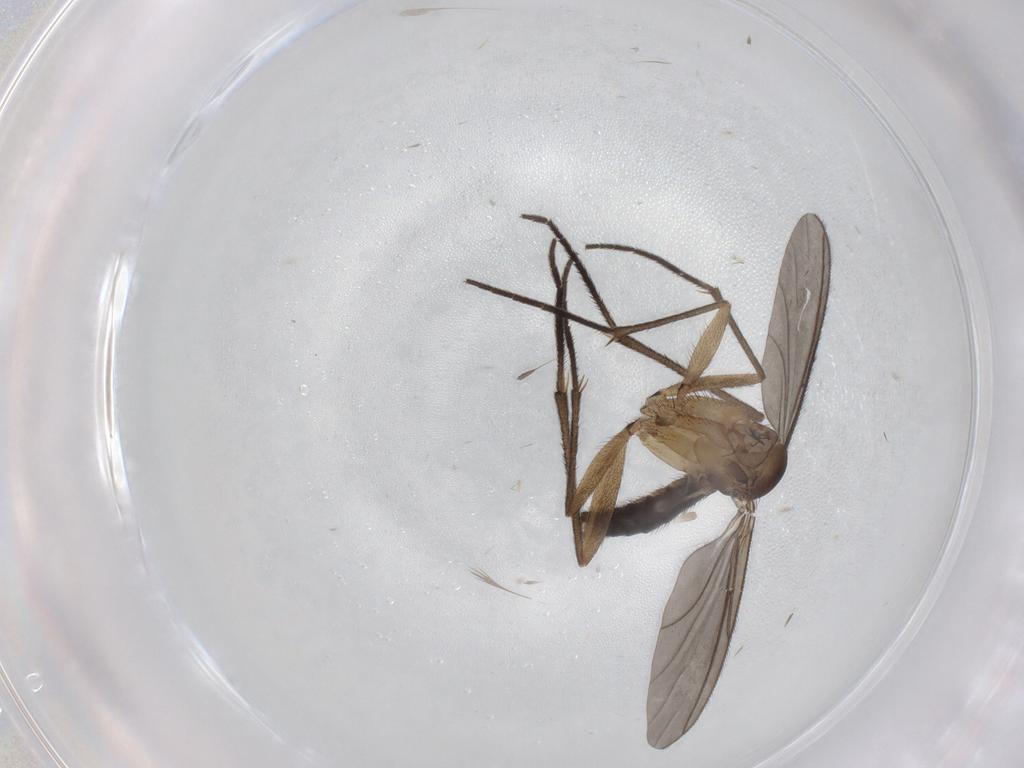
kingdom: Animalia
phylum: Arthropoda
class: Insecta
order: Diptera
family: Sciaridae
